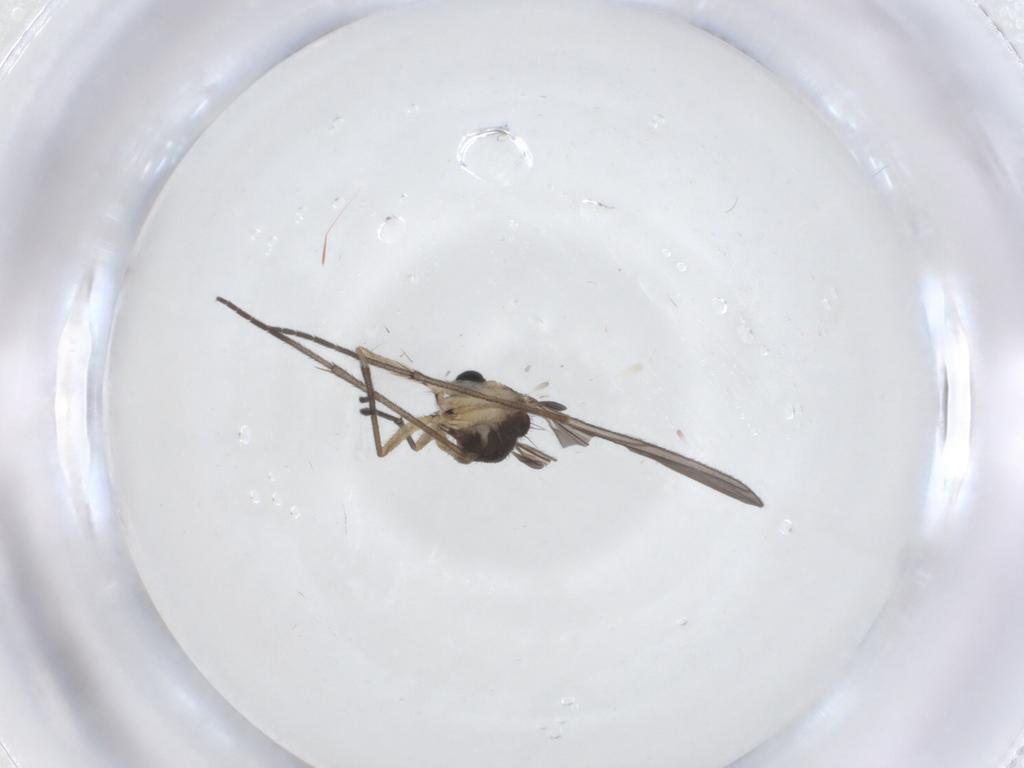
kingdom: Animalia
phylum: Arthropoda
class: Insecta
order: Diptera
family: Sciaridae
